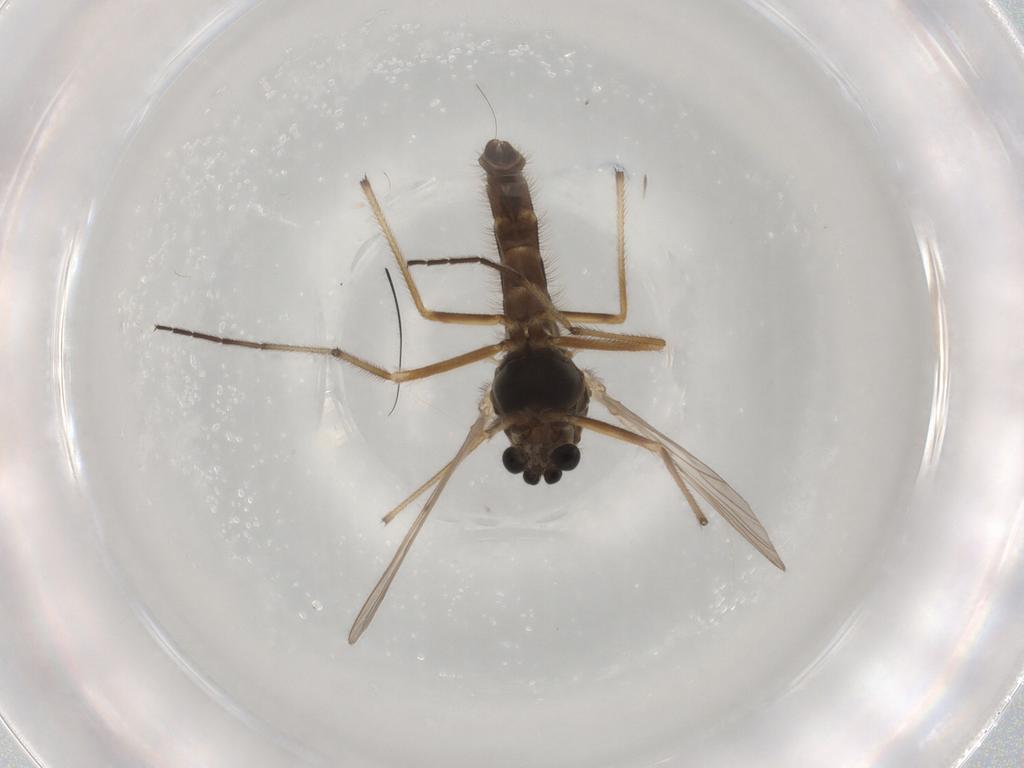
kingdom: Animalia
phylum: Arthropoda
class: Insecta
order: Diptera
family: Chironomidae
